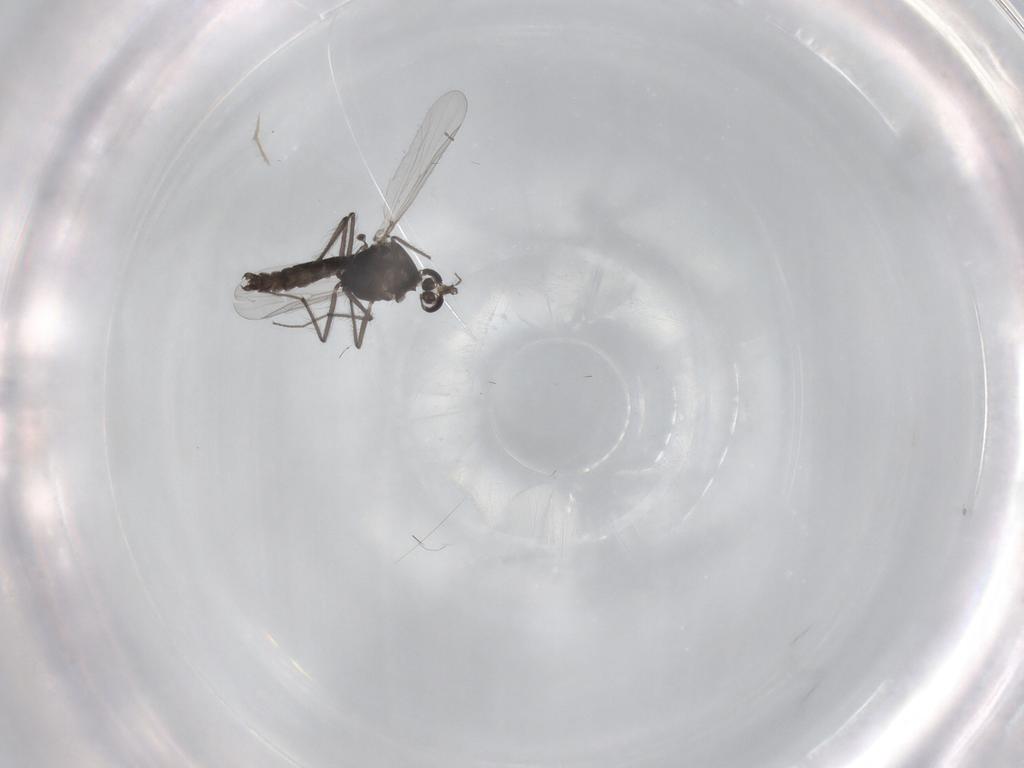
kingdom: Animalia
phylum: Arthropoda
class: Insecta
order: Diptera
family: Chironomidae
